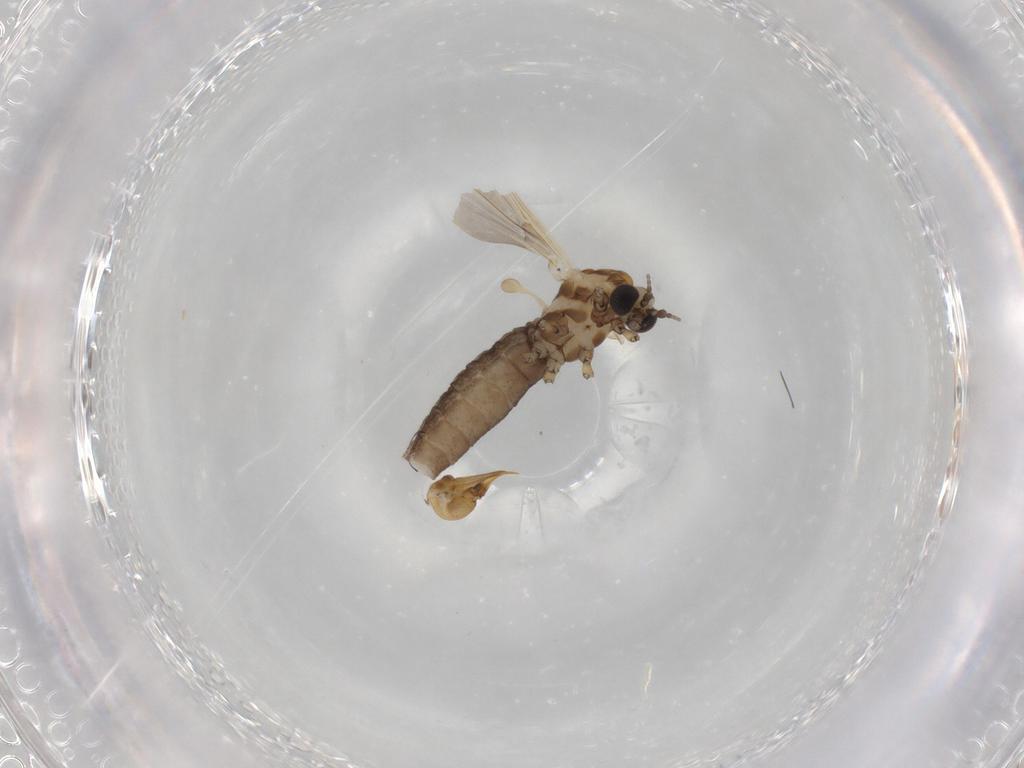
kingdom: Animalia
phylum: Arthropoda
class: Insecta
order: Diptera
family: Limoniidae
